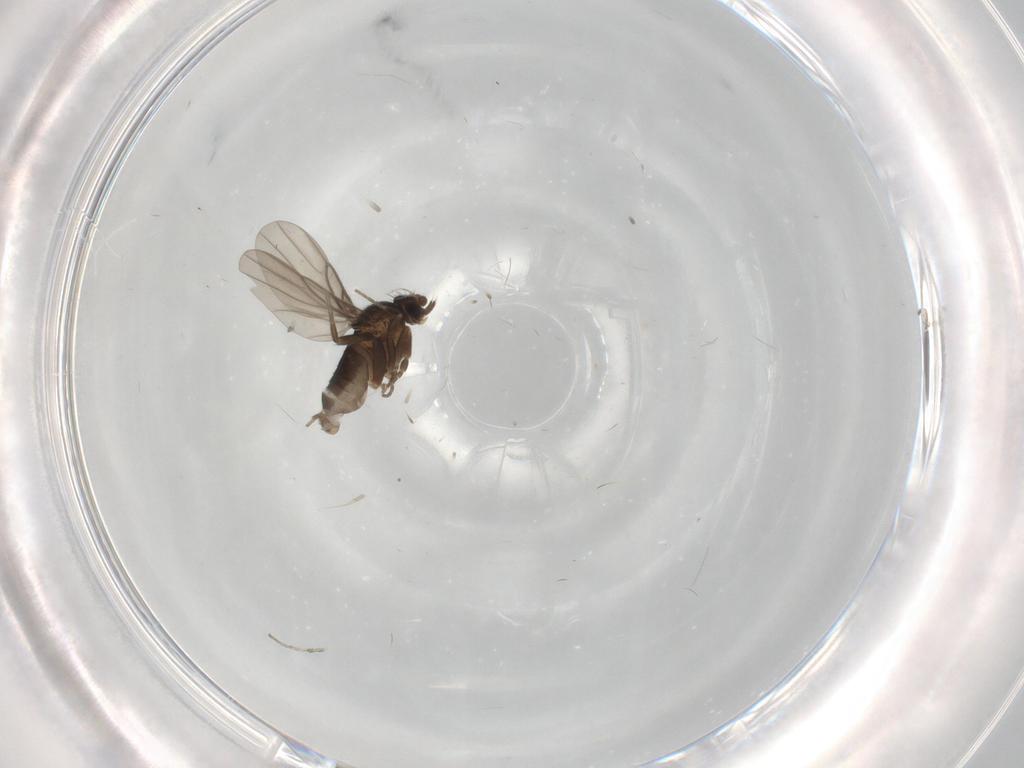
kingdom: Animalia
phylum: Arthropoda
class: Insecta
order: Diptera
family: Phoridae
